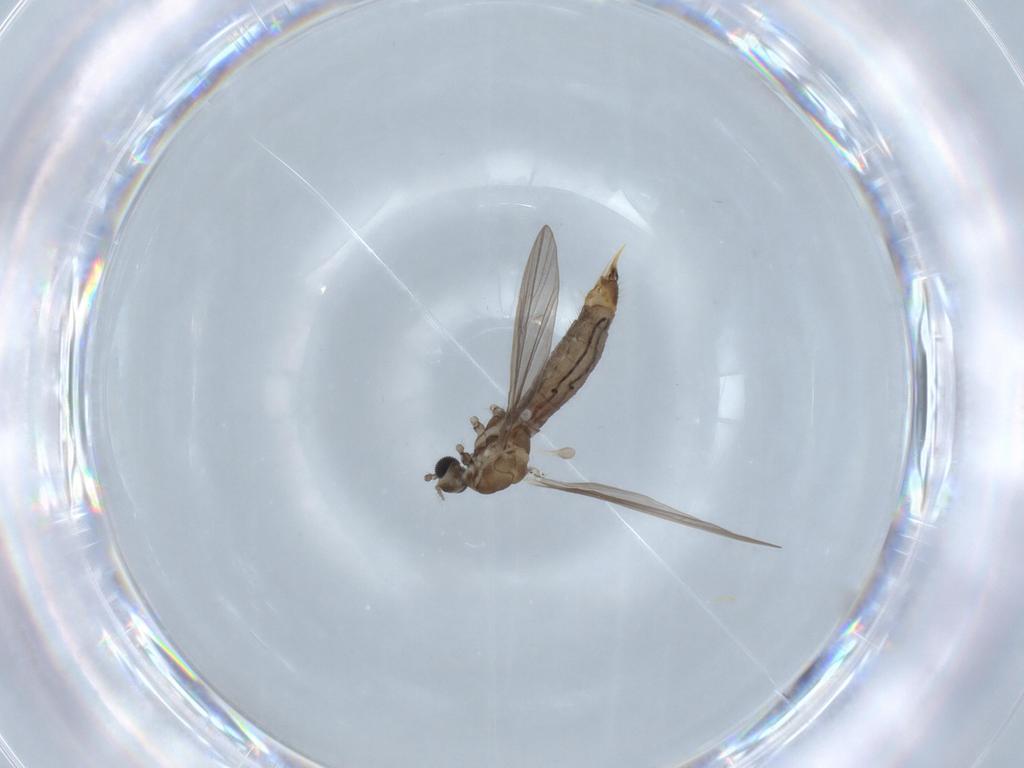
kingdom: Animalia
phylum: Arthropoda
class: Insecta
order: Diptera
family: Limoniidae
